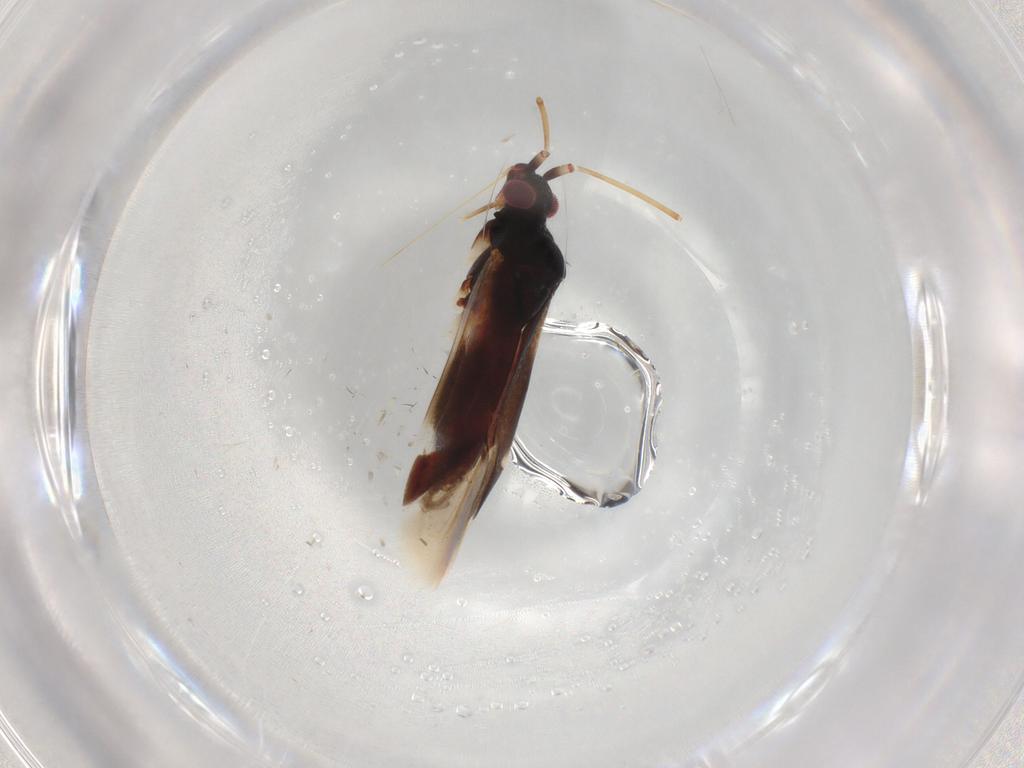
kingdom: Animalia
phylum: Arthropoda
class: Insecta
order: Hemiptera
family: Miridae
